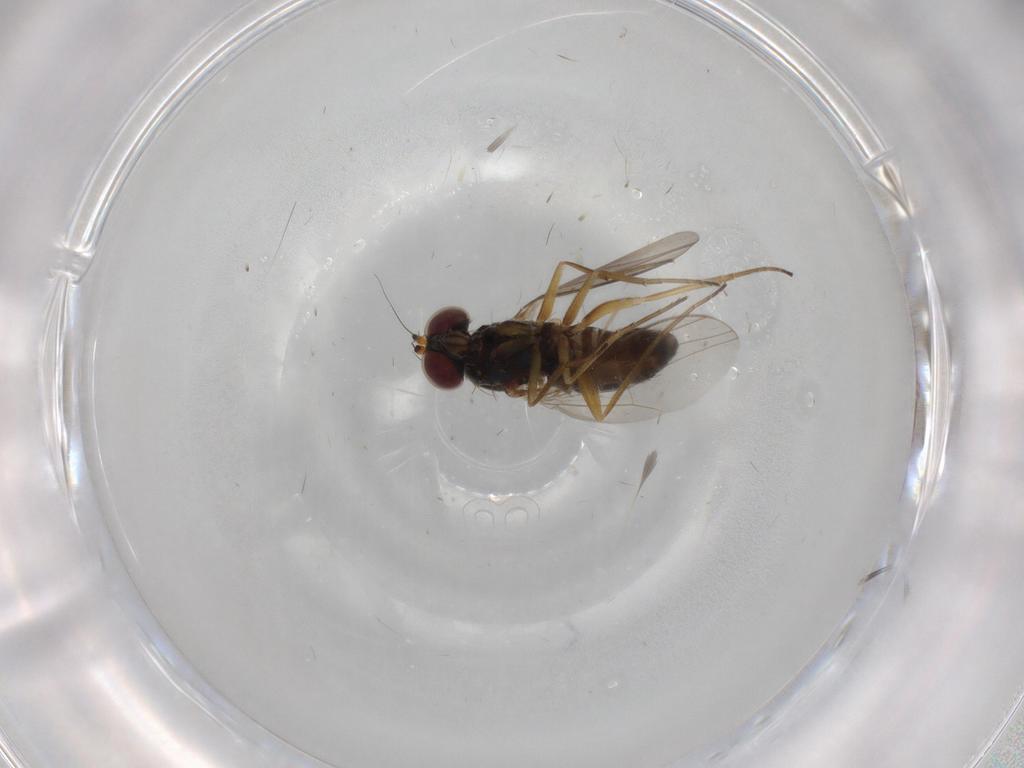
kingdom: Animalia
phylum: Arthropoda
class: Insecta
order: Diptera
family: Dolichopodidae
